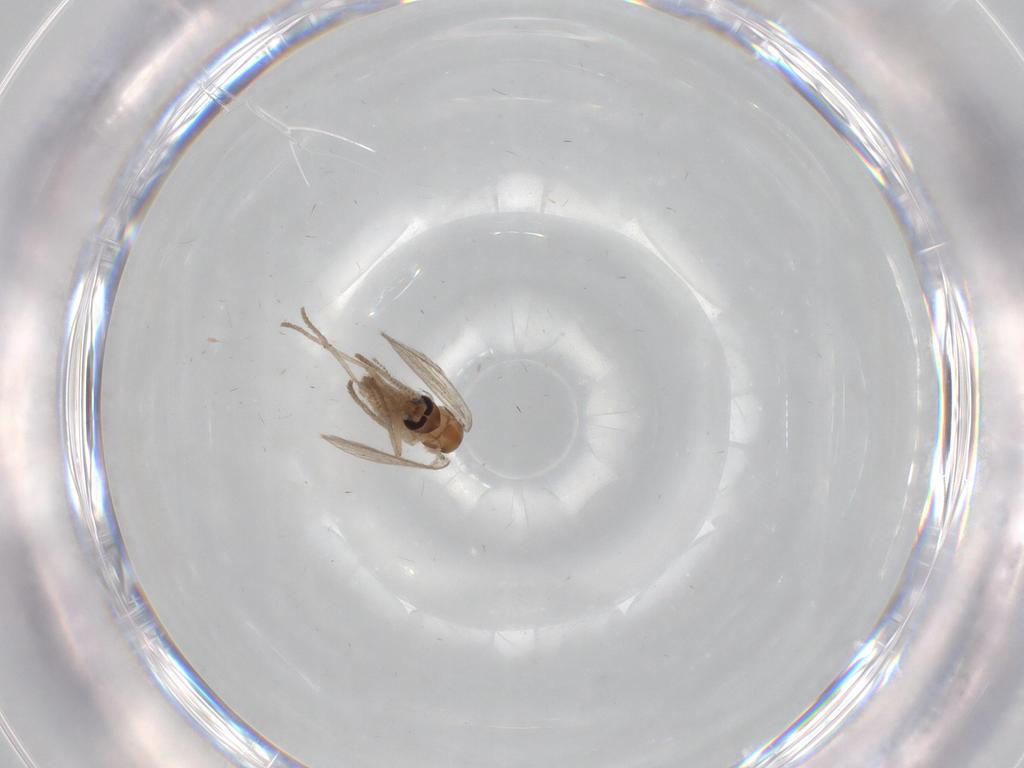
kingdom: Animalia
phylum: Arthropoda
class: Insecta
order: Diptera
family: Psychodidae
